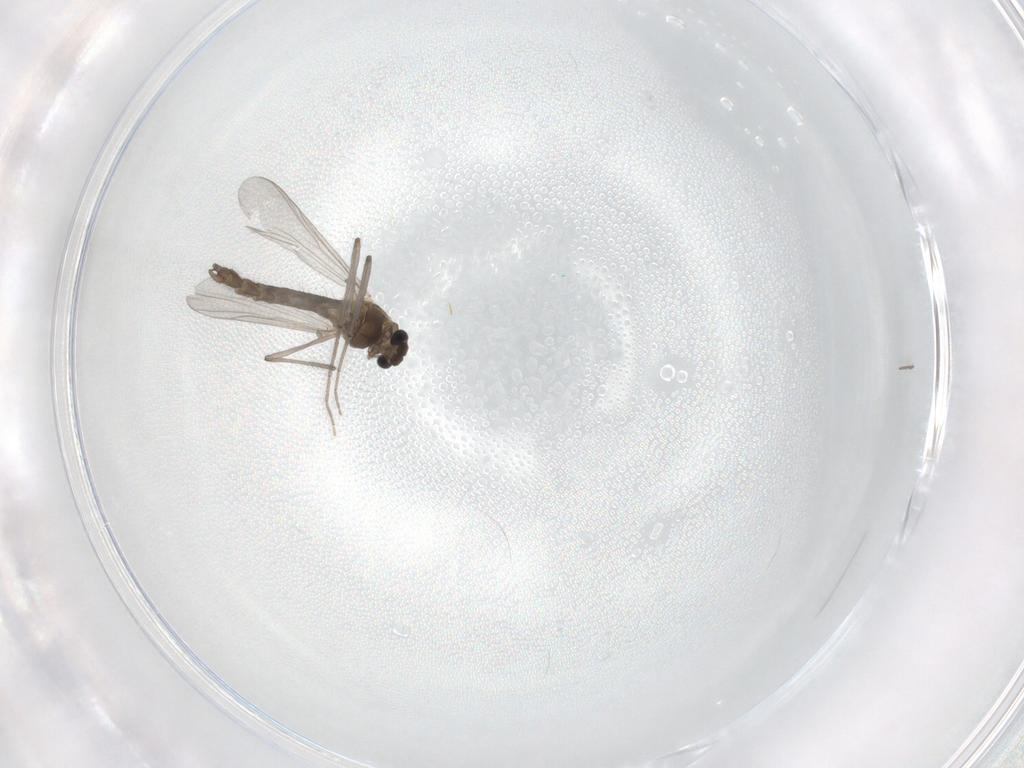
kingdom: Animalia
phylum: Arthropoda
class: Insecta
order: Diptera
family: Chironomidae
